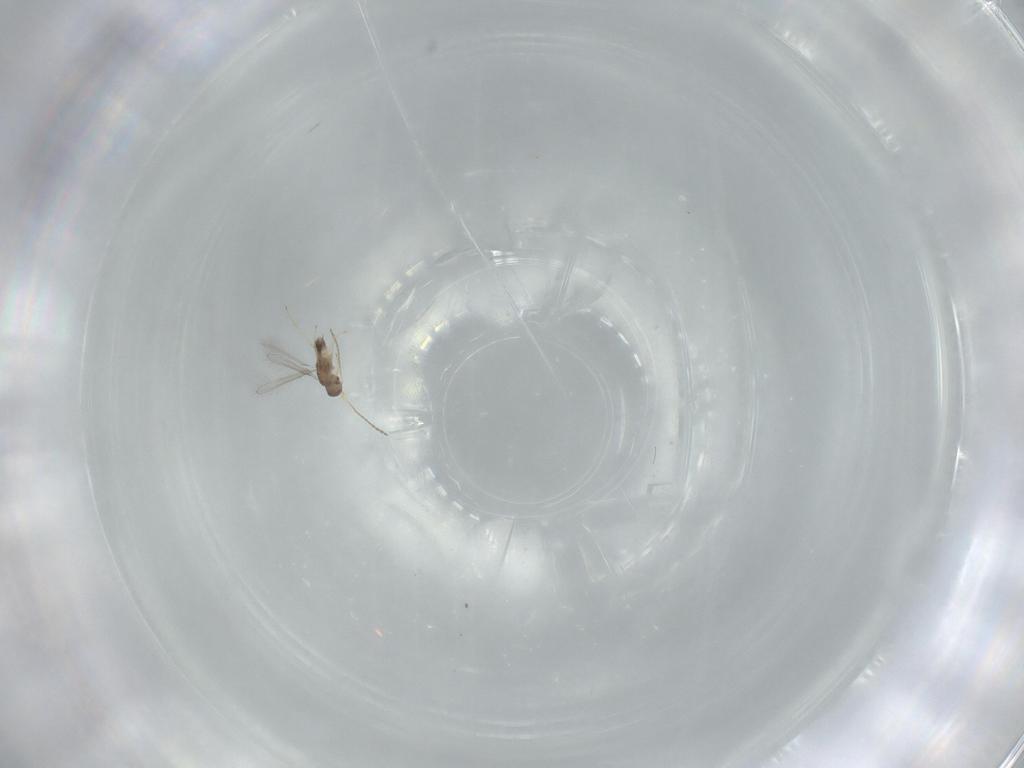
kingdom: Animalia
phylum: Arthropoda
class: Insecta
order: Hymenoptera
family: Mymaridae
